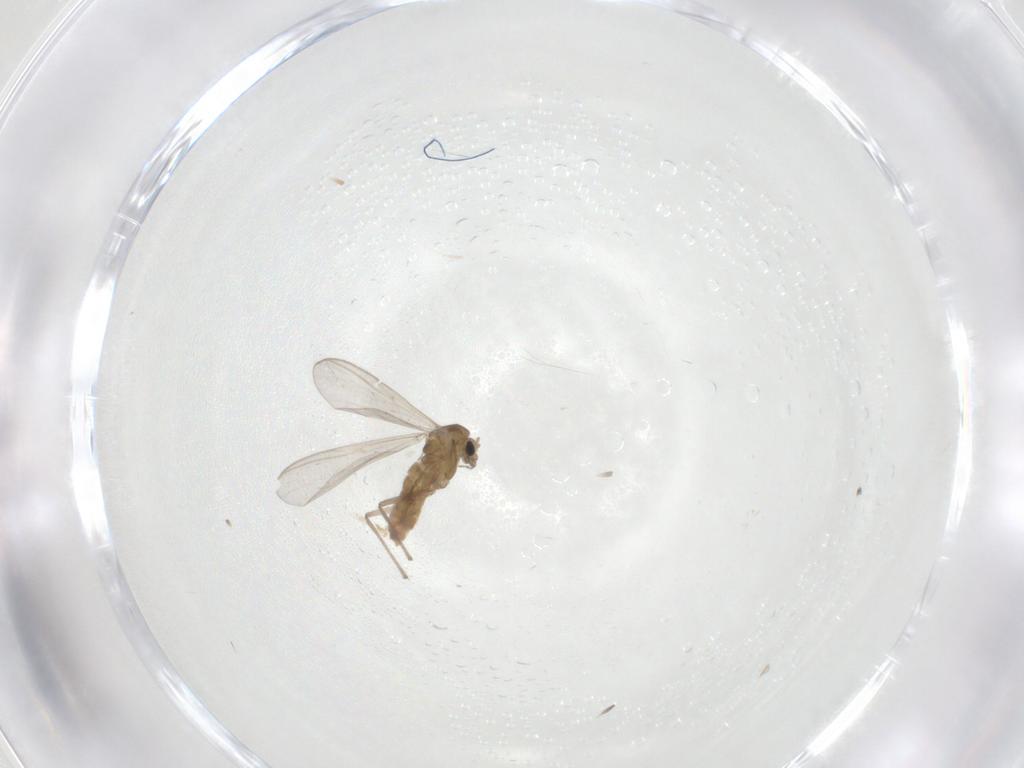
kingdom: Animalia
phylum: Arthropoda
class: Insecta
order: Diptera
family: Chironomidae
